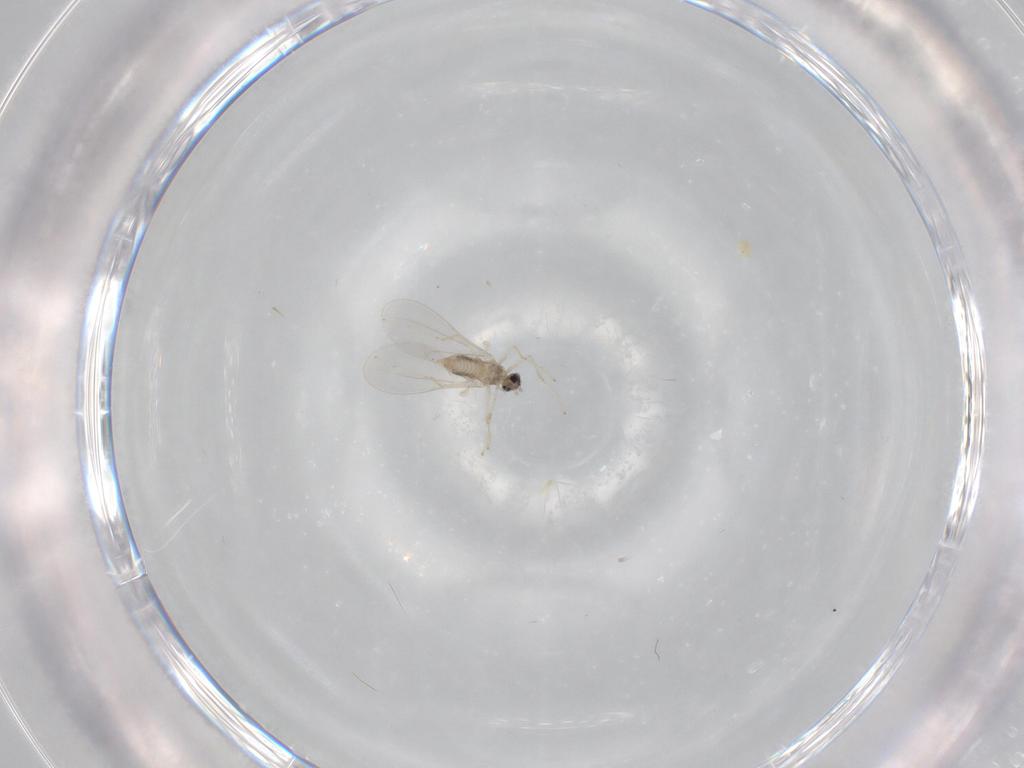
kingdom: Animalia
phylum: Arthropoda
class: Insecta
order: Diptera
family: Cecidomyiidae
